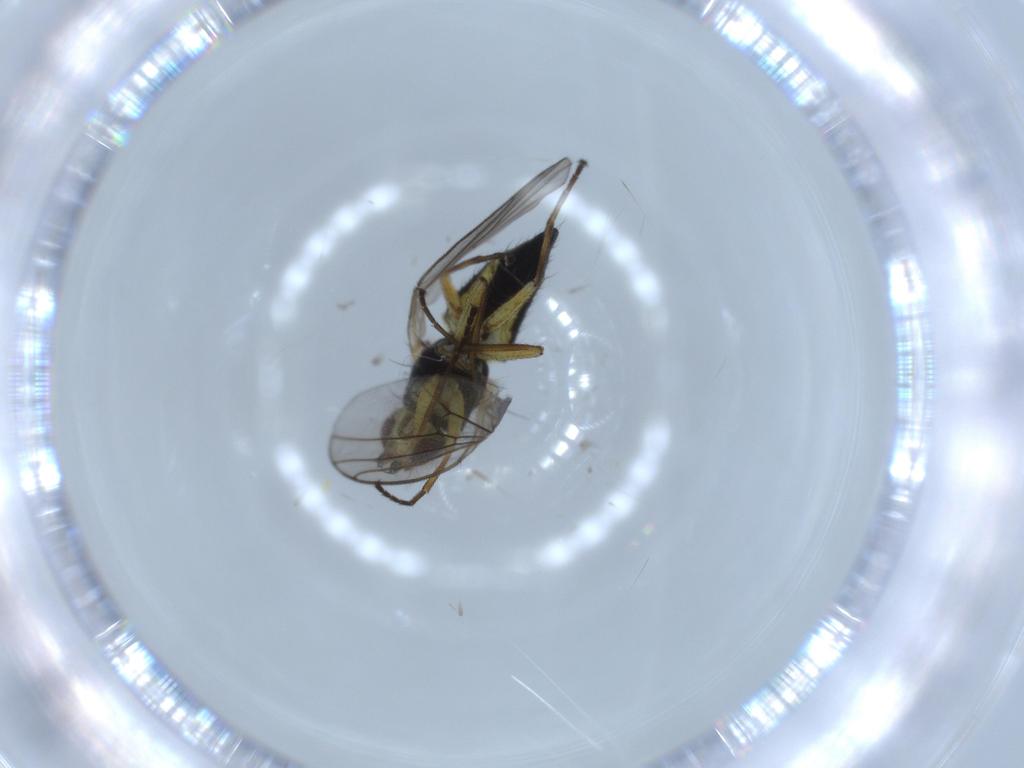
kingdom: Animalia
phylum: Arthropoda
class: Insecta
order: Diptera
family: Agromyzidae
